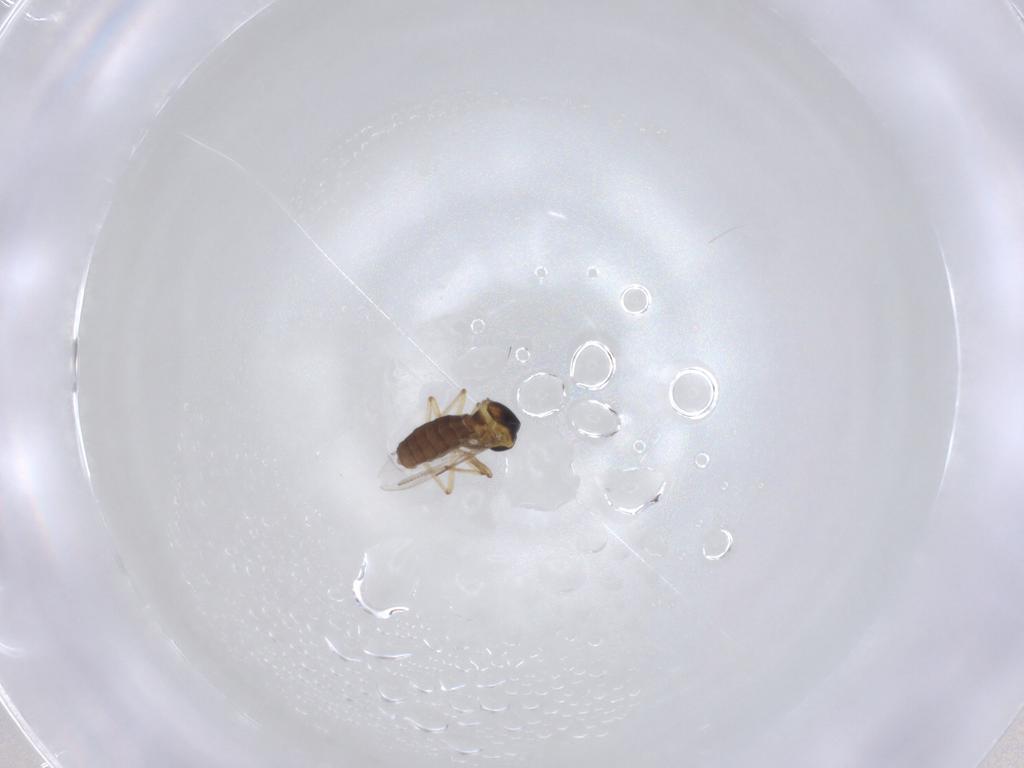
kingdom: Animalia
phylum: Arthropoda
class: Insecta
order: Diptera
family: Ceratopogonidae
